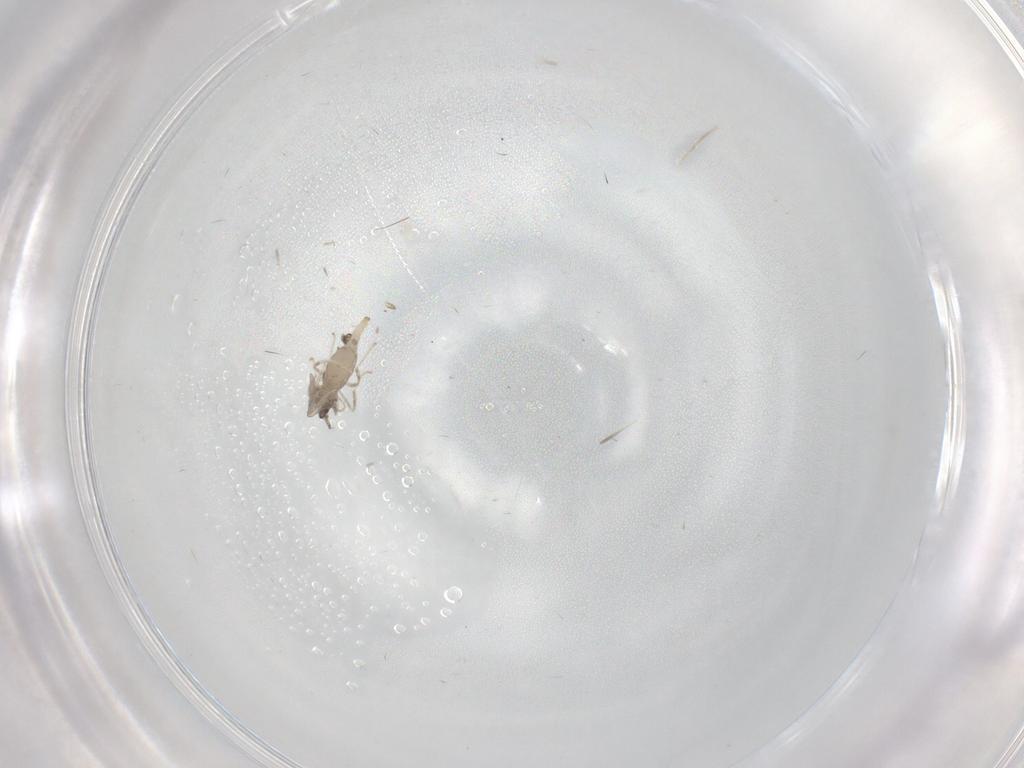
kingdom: Animalia
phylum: Arthropoda
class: Insecta
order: Diptera
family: Cecidomyiidae
